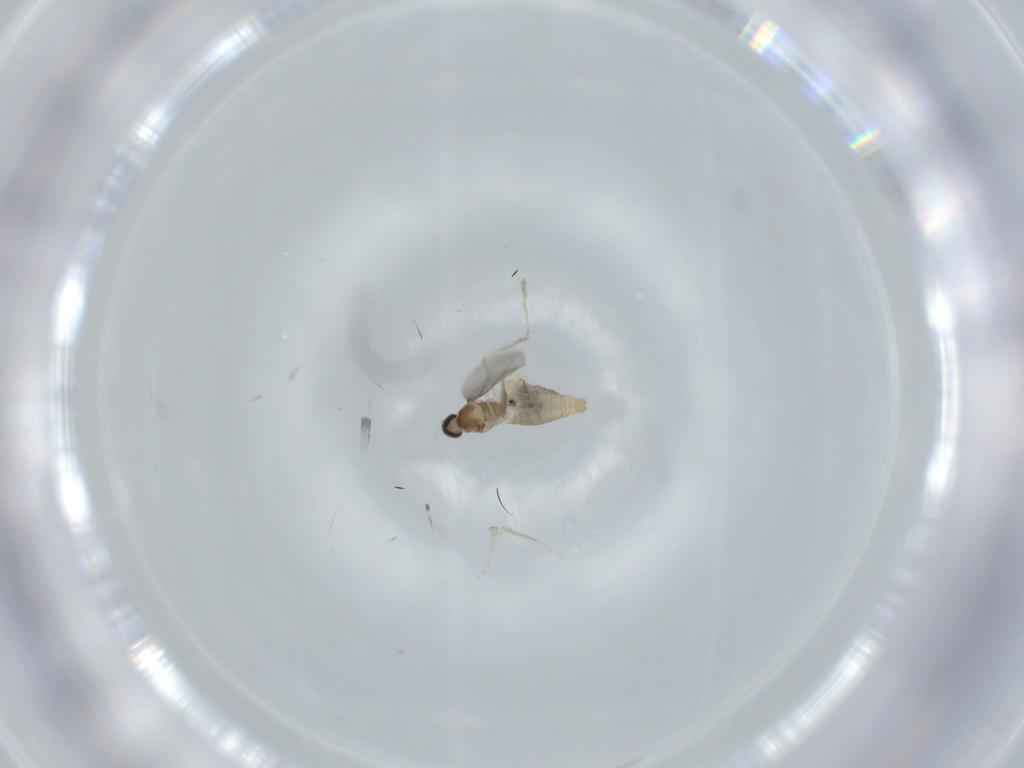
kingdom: Animalia
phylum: Arthropoda
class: Insecta
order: Diptera
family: Cecidomyiidae
